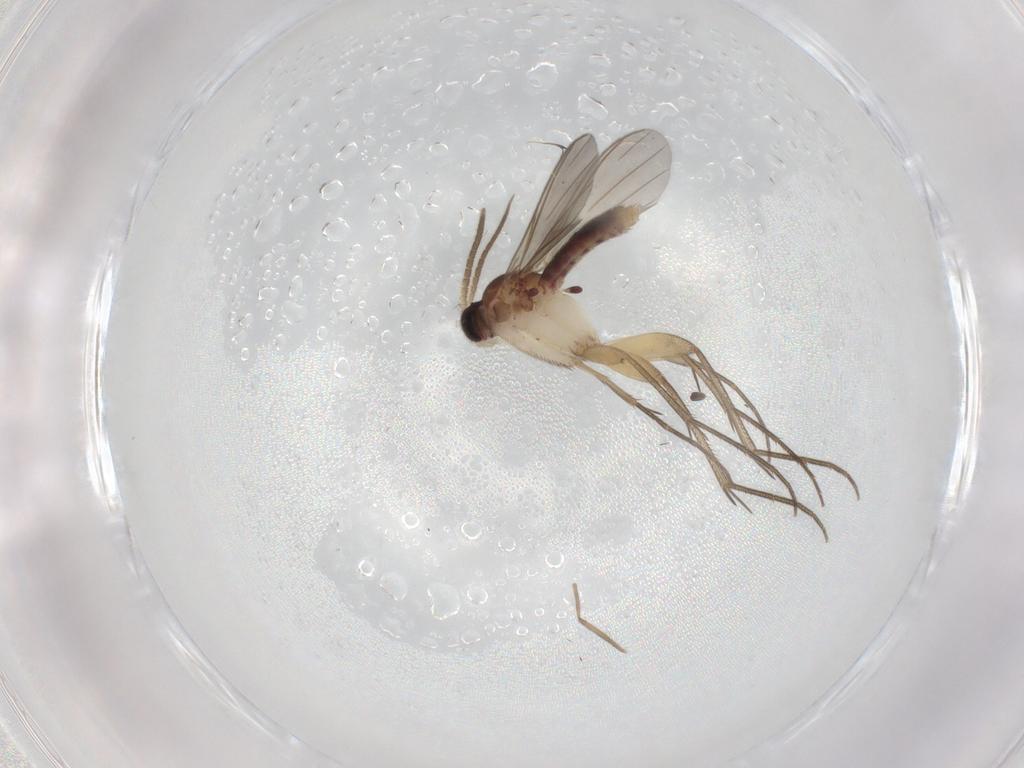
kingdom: Animalia
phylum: Arthropoda
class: Insecta
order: Diptera
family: Mycetophilidae
